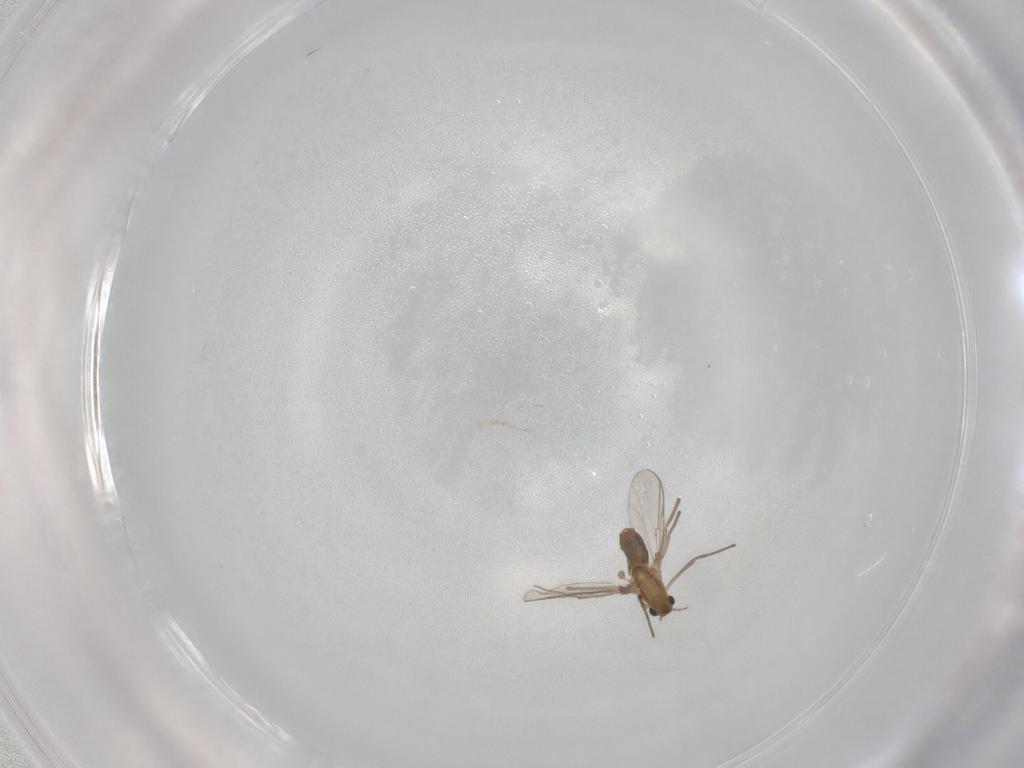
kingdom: Animalia
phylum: Arthropoda
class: Insecta
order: Diptera
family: Chironomidae
